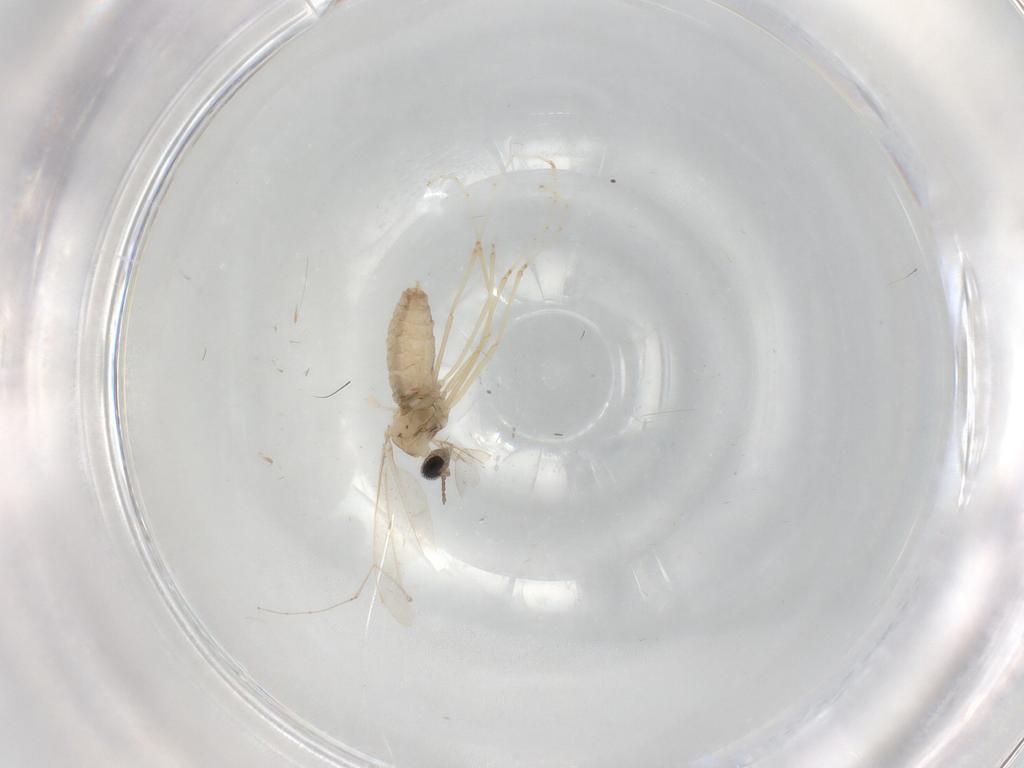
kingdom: Animalia
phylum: Arthropoda
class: Insecta
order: Diptera
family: Cecidomyiidae
